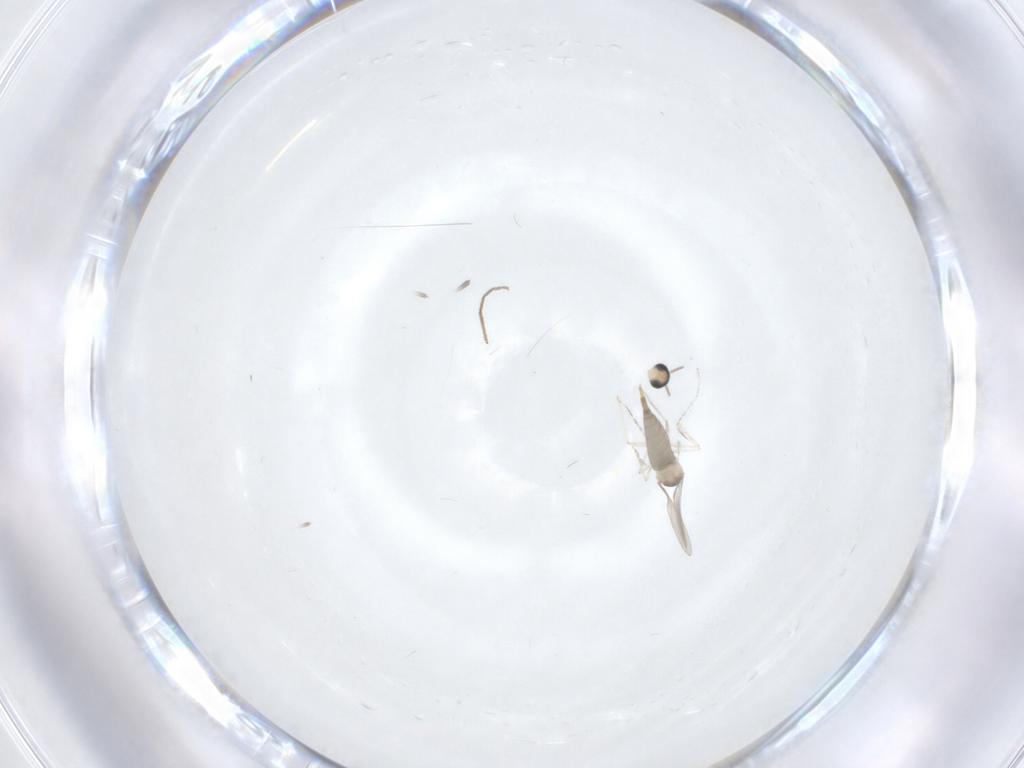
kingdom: Animalia
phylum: Arthropoda
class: Insecta
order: Diptera
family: Cecidomyiidae
